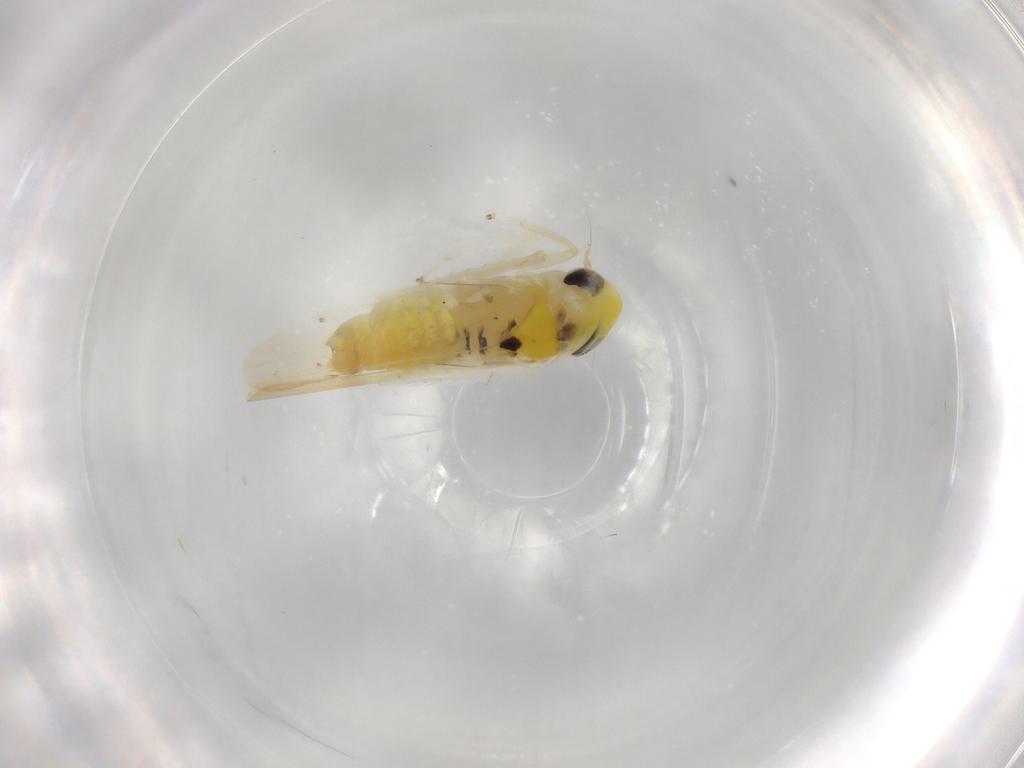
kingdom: Animalia
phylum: Arthropoda
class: Insecta
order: Hemiptera
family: Cicadellidae
